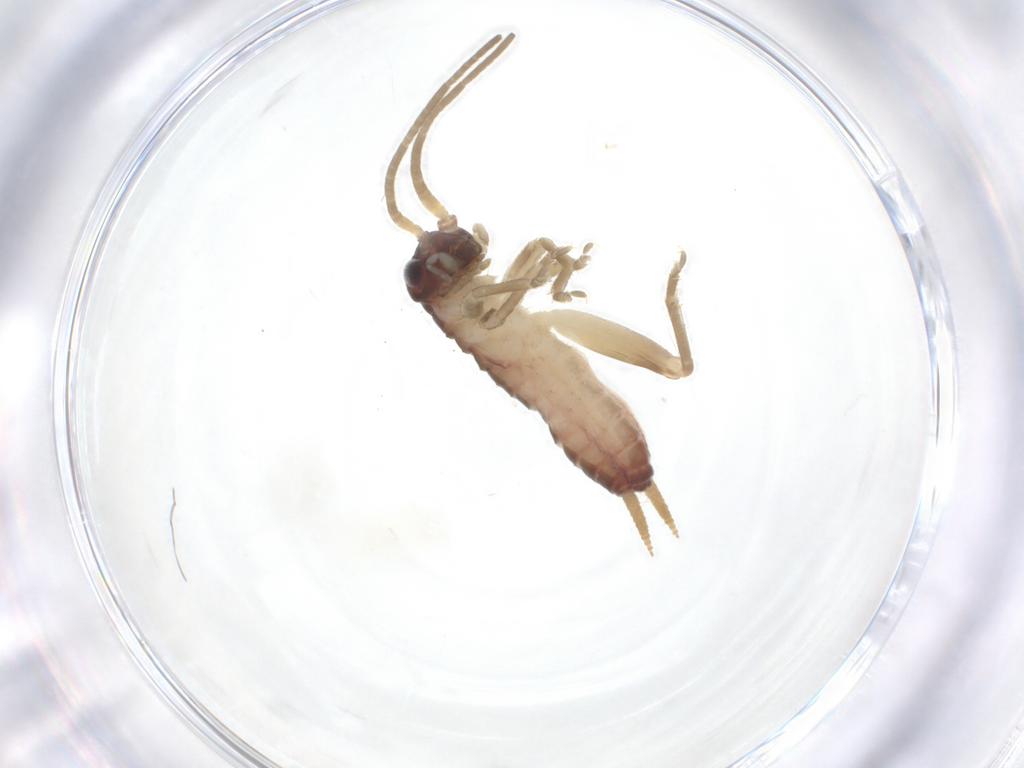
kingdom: Animalia
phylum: Arthropoda
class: Insecta
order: Orthoptera
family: Gryllidae
